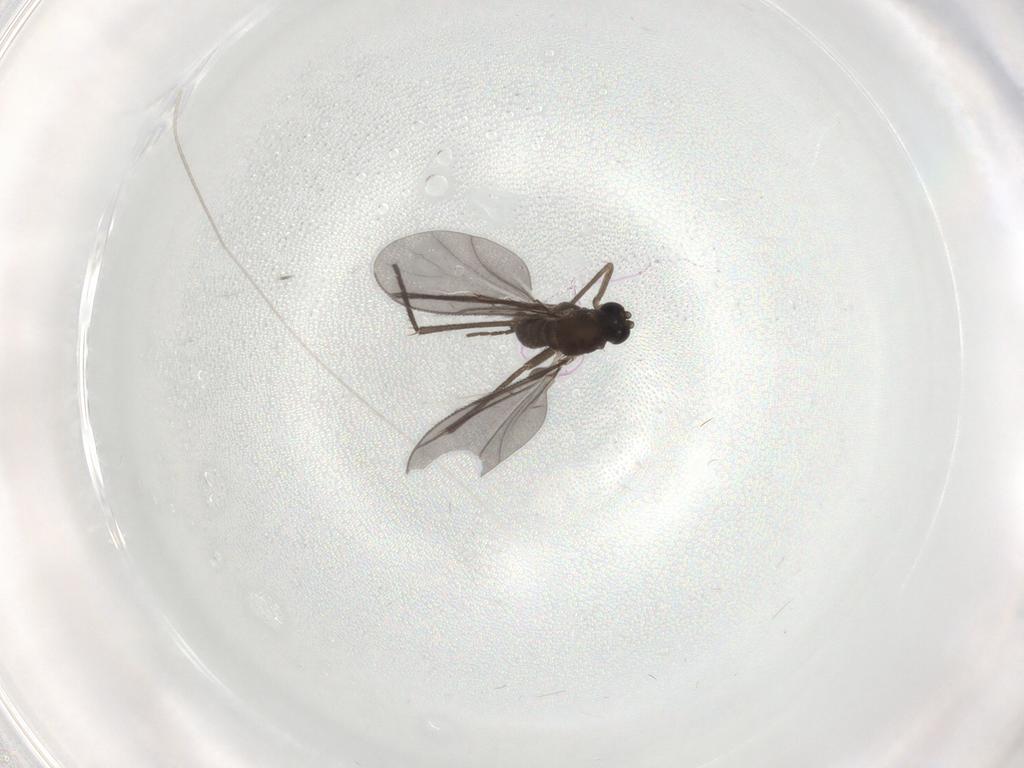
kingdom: Animalia
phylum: Arthropoda
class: Insecta
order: Diptera
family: Sciaridae
